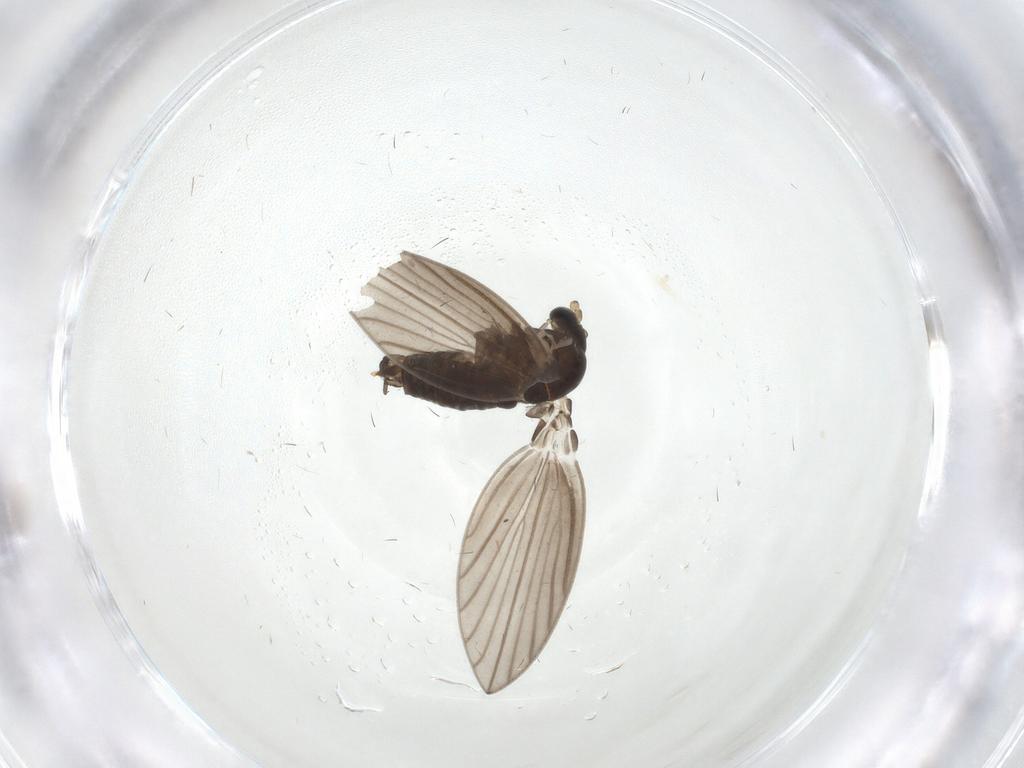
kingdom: Animalia
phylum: Arthropoda
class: Insecta
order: Diptera
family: Psychodidae
